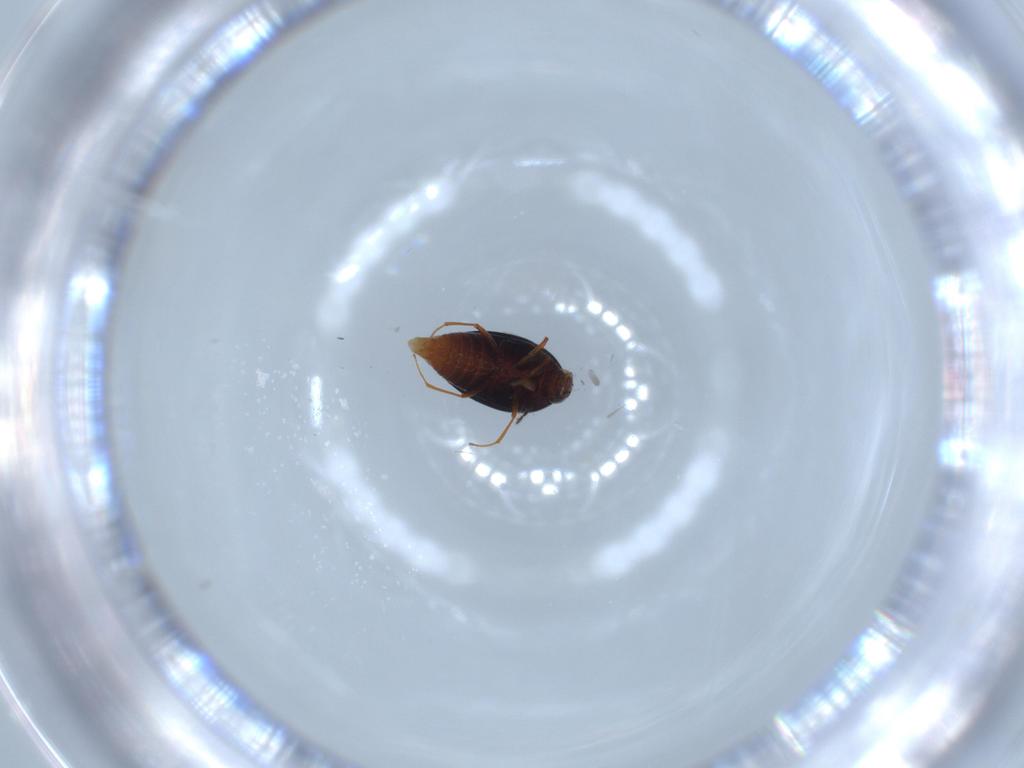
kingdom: Animalia
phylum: Arthropoda
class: Insecta
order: Coleoptera
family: Staphylinidae
